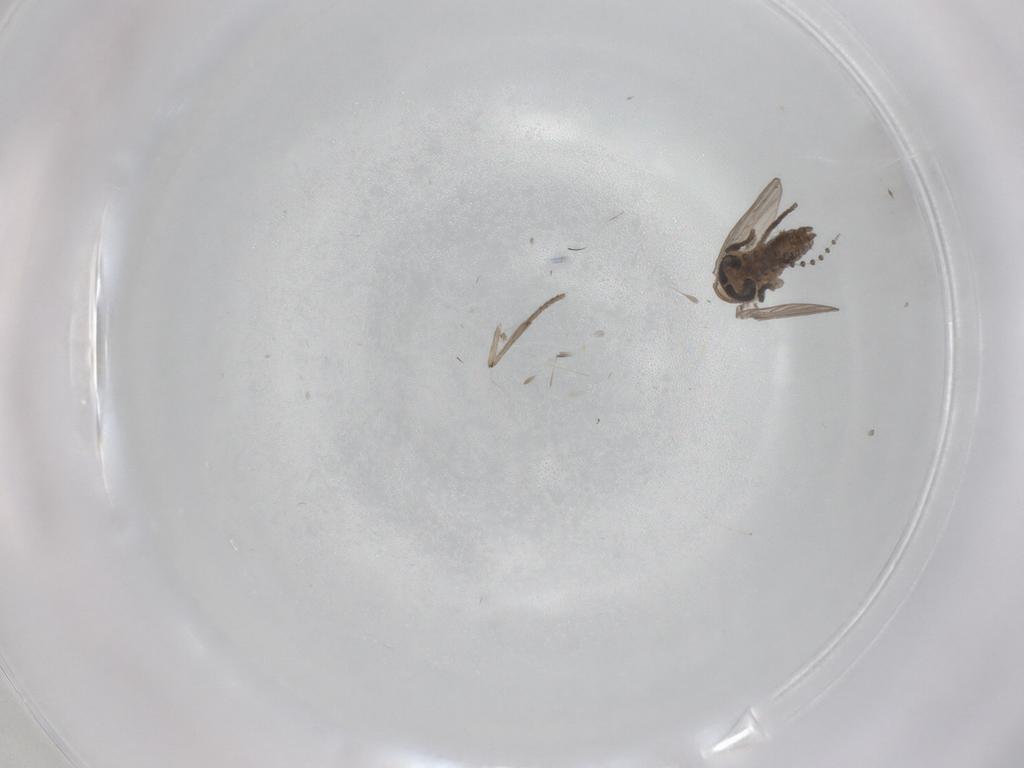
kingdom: Animalia
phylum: Arthropoda
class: Insecta
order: Diptera
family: Psychodidae
